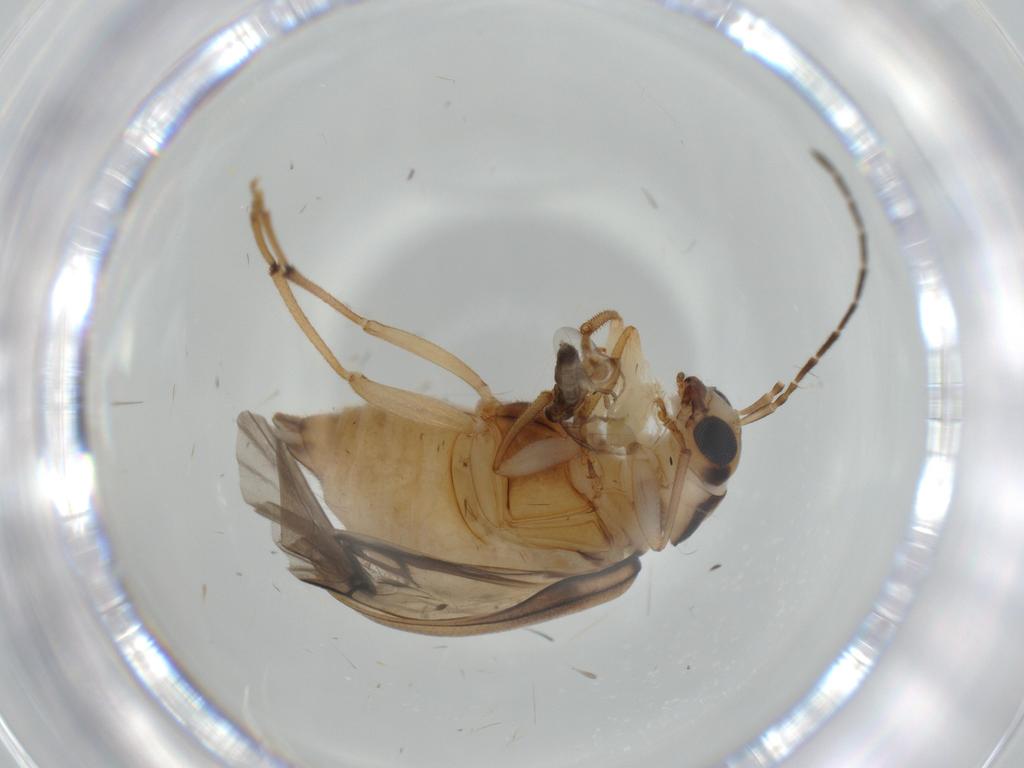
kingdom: Animalia
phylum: Arthropoda
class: Insecta
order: Coleoptera
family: Chrysomelidae
